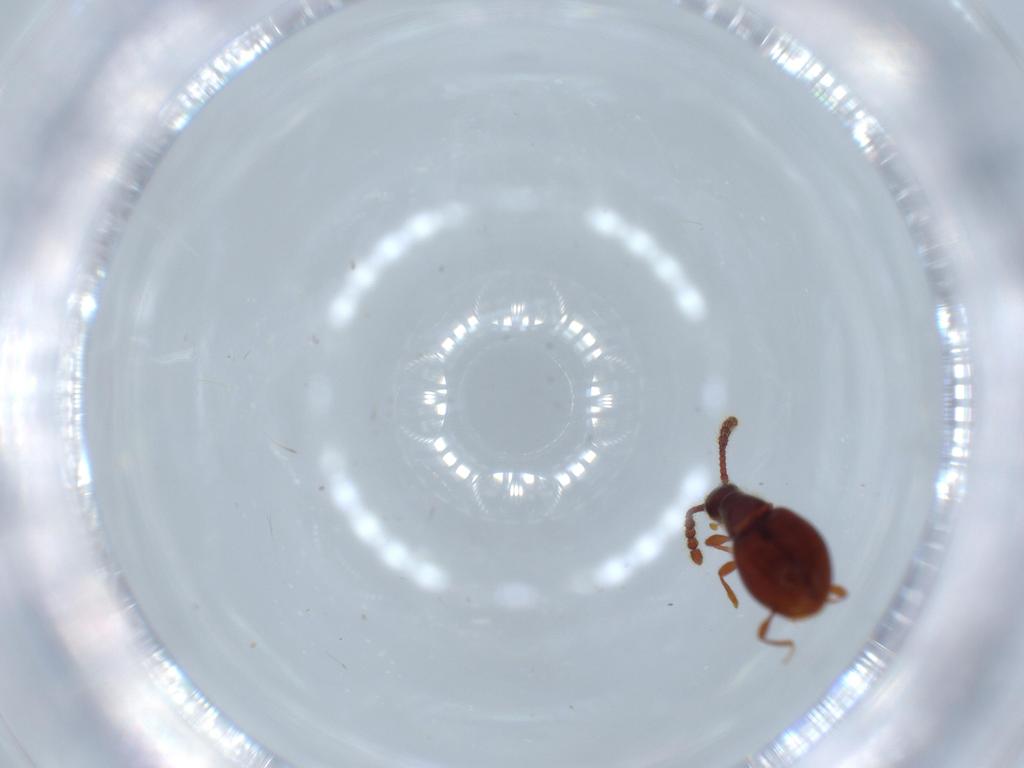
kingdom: Animalia
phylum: Arthropoda
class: Insecta
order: Coleoptera
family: Staphylinidae
